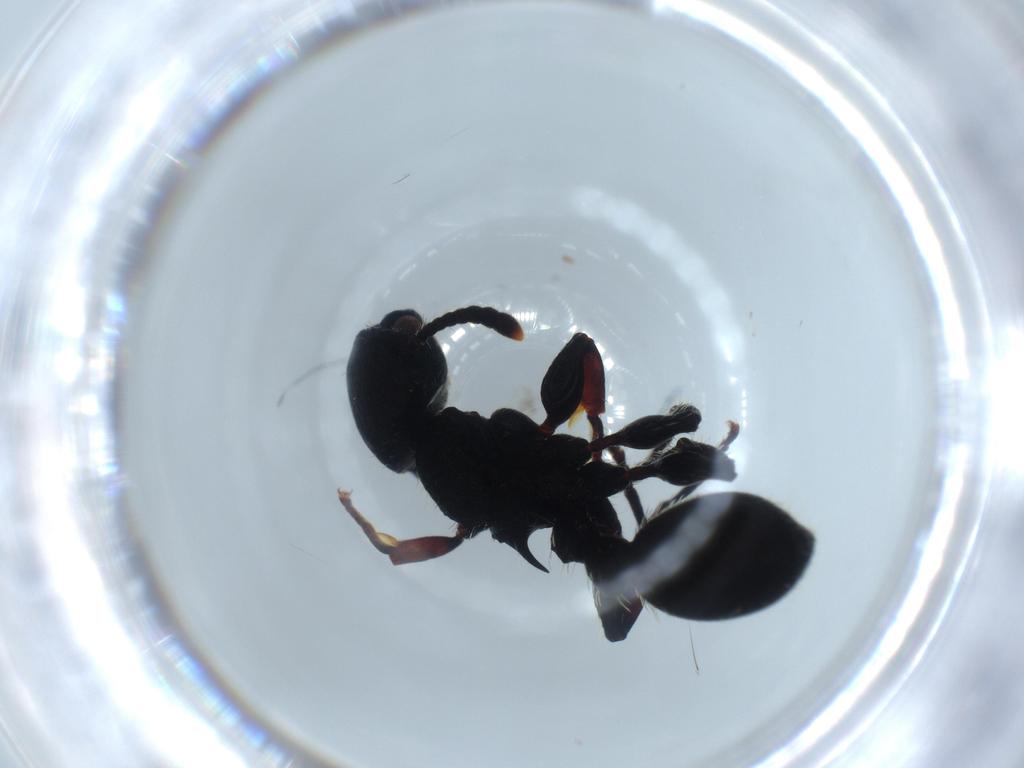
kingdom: Animalia
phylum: Arthropoda
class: Insecta
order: Hymenoptera
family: Formicidae
